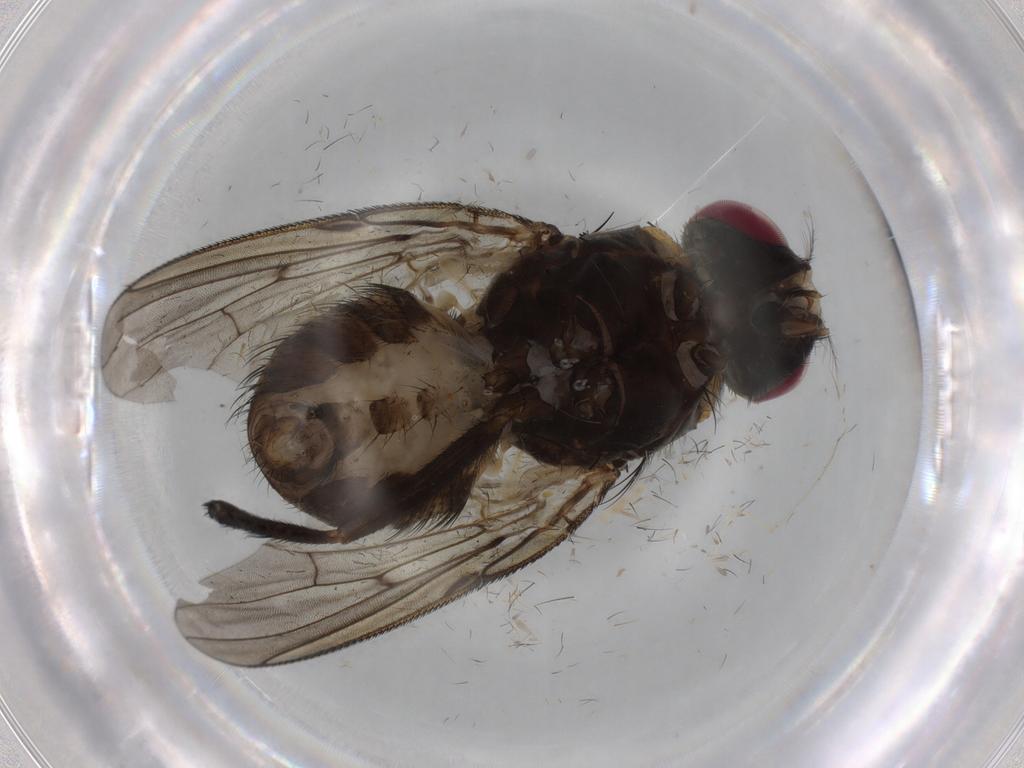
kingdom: Animalia
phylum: Arthropoda
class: Insecta
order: Diptera
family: Muscidae
